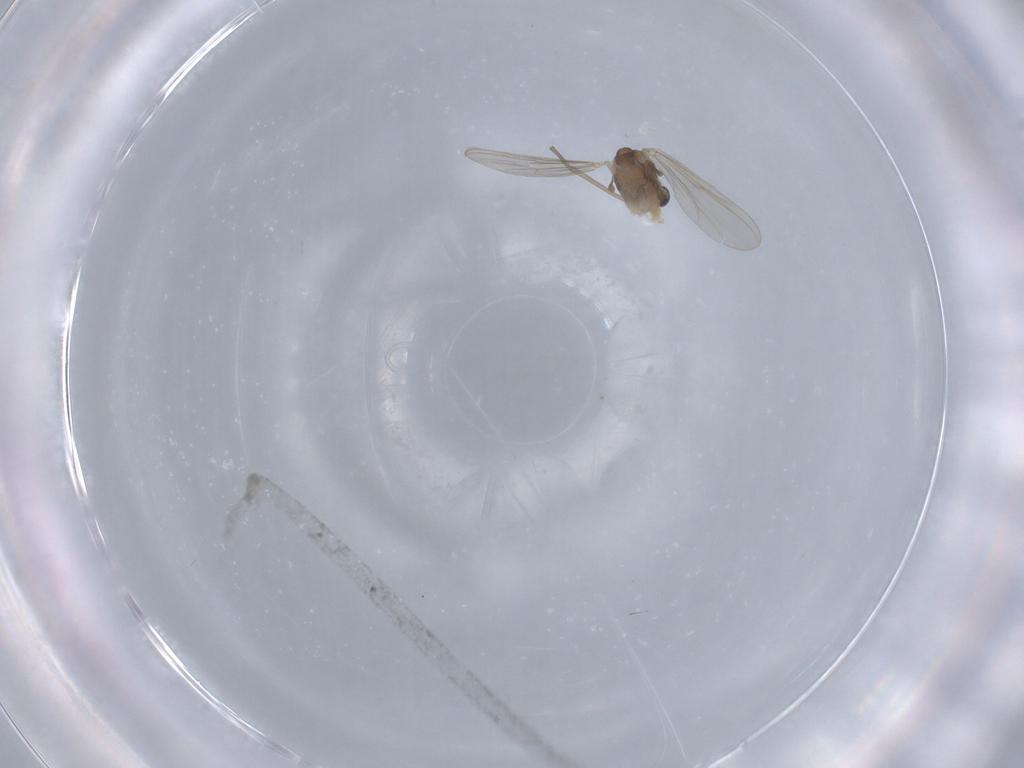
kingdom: Animalia
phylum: Arthropoda
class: Insecta
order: Diptera
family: Chironomidae
